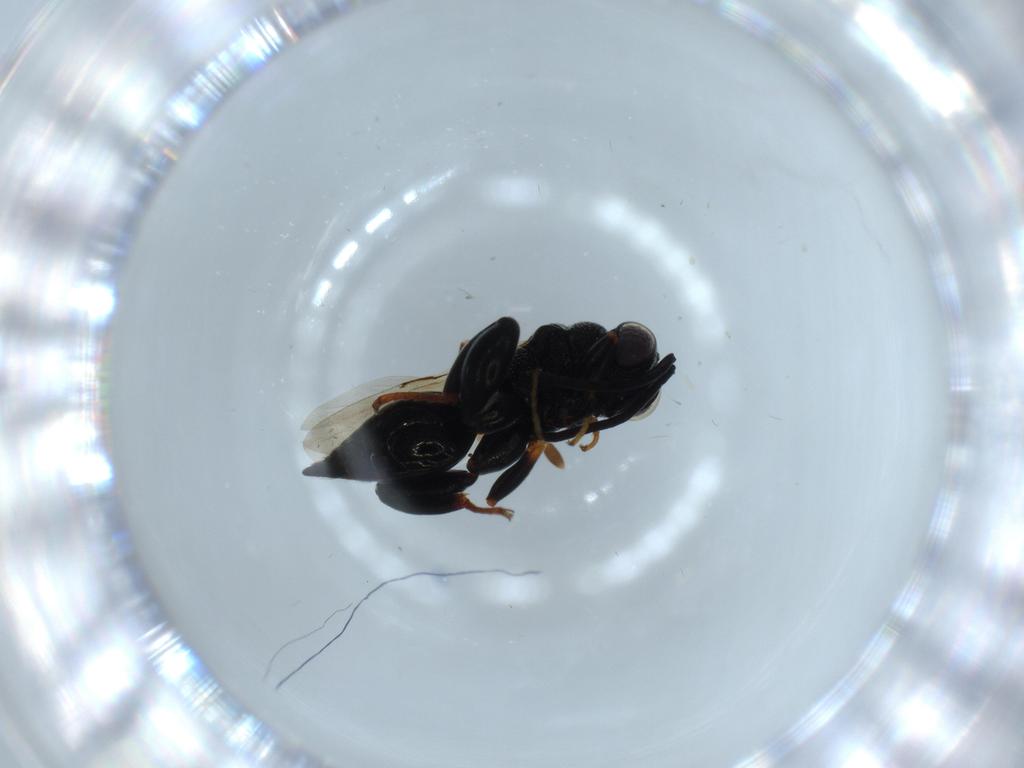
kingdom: Animalia
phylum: Arthropoda
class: Insecta
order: Hymenoptera
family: Formicidae
